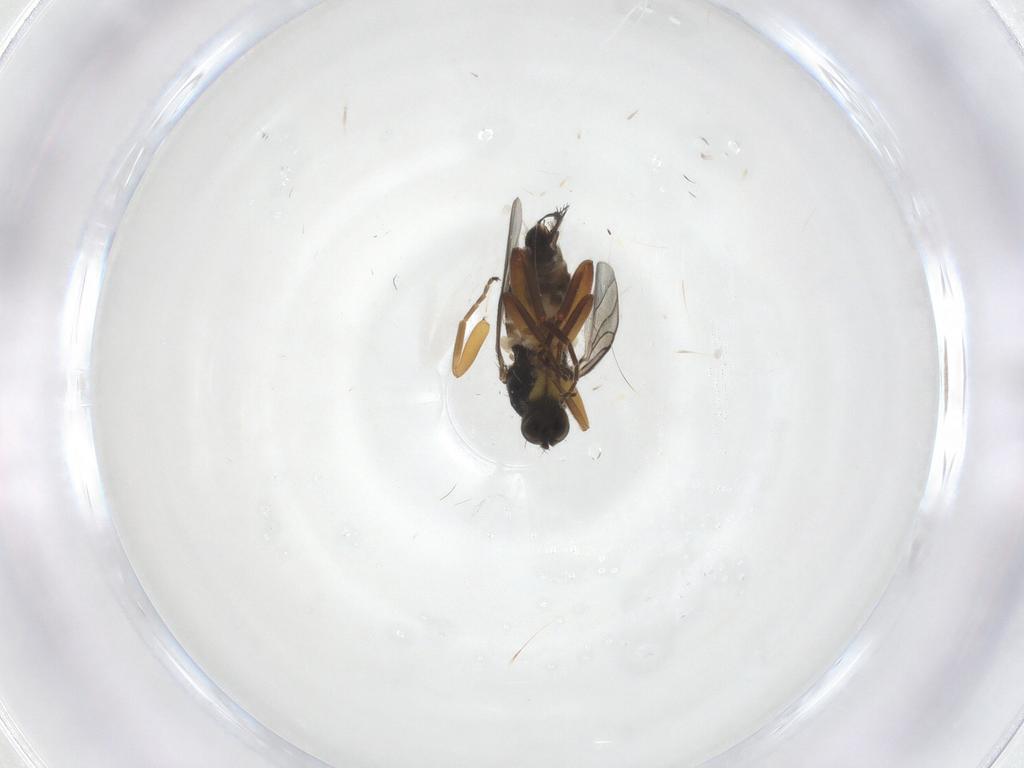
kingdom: Animalia
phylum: Arthropoda
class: Insecta
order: Diptera
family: Hybotidae
